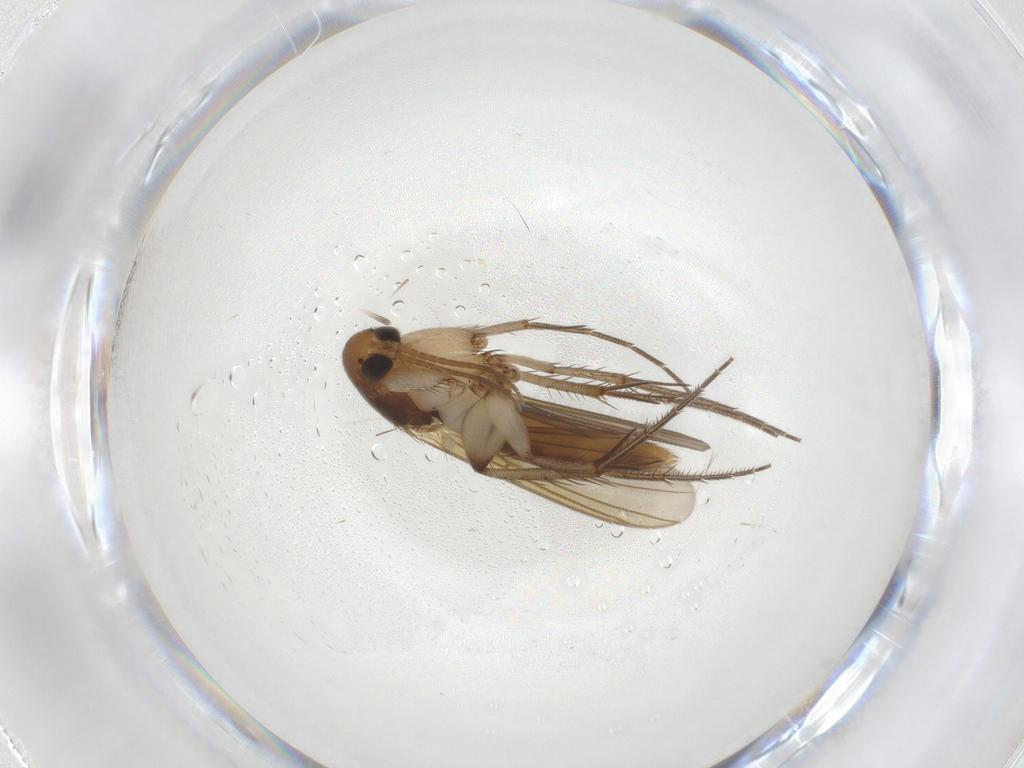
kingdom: Animalia
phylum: Arthropoda
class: Insecta
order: Diptera
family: Mycetophilidae
